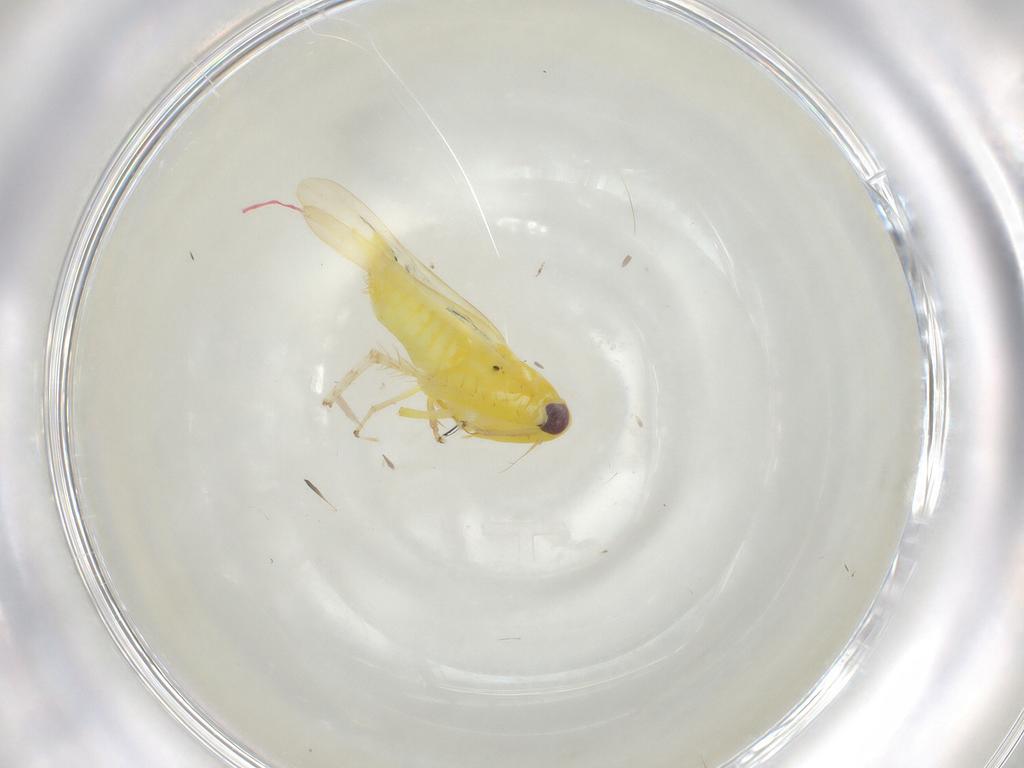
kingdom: Animalia
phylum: Arthropoda
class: Insecta
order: Hemiptera
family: Cicadellidae
